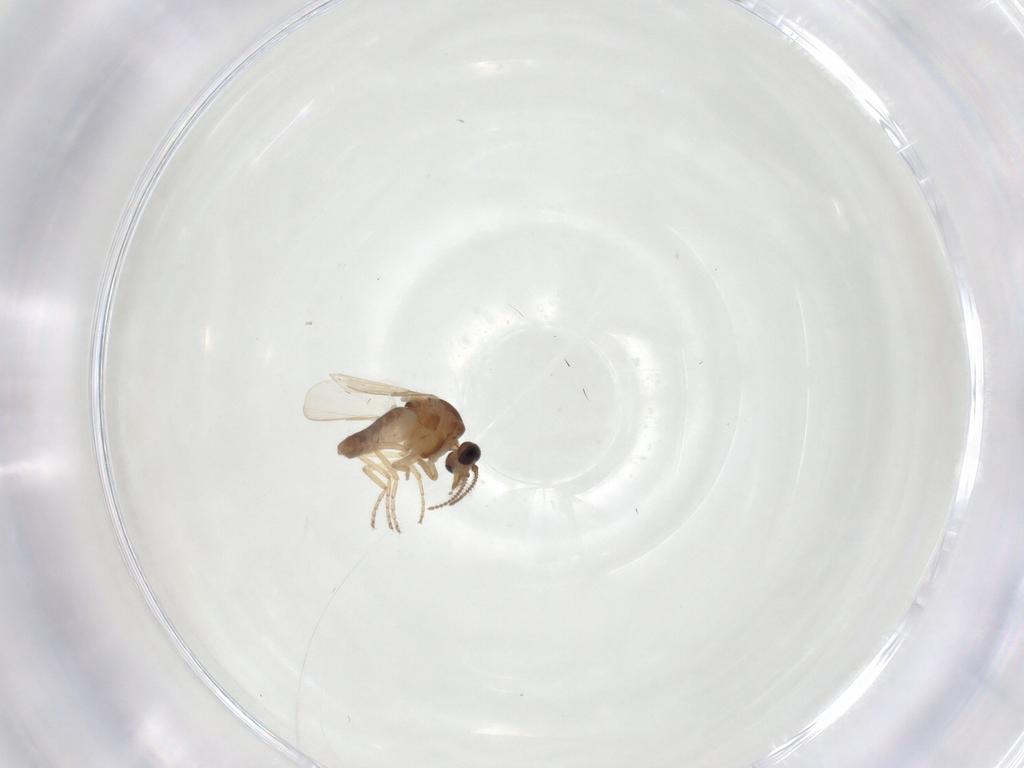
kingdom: Animalia
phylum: Arthropoda
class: Insecta
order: Diptera
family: Ceratopogonidae
